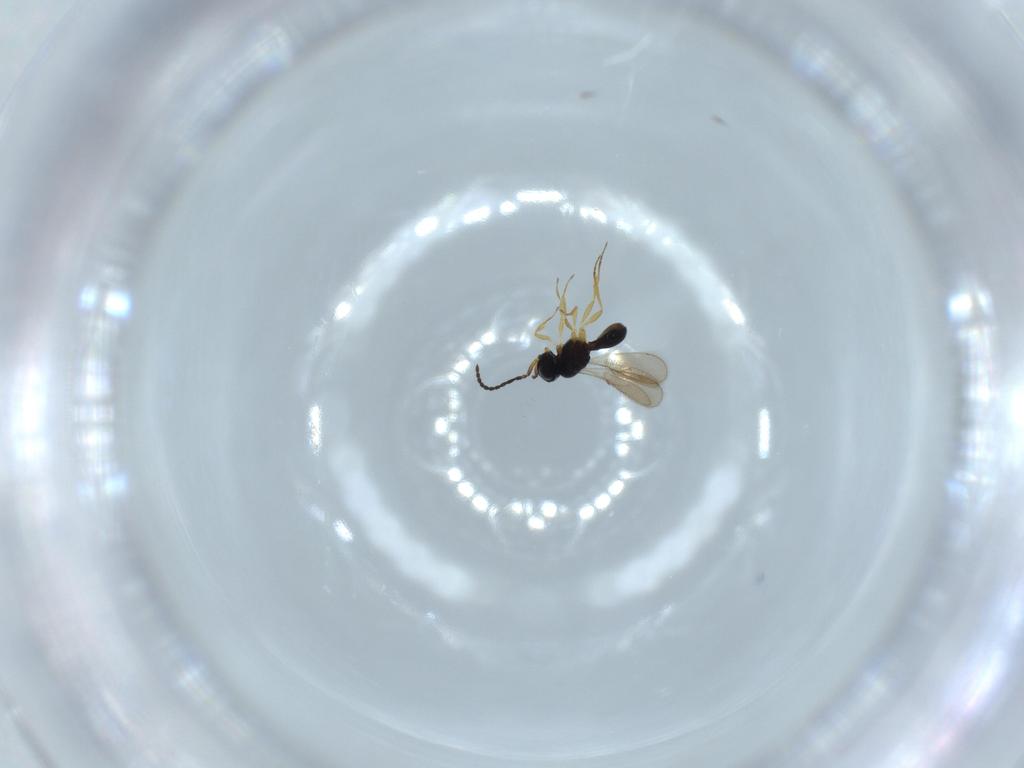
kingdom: Animalia
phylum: Arthropoda
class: Insecta
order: Hymenoptera
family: Scelionidae
